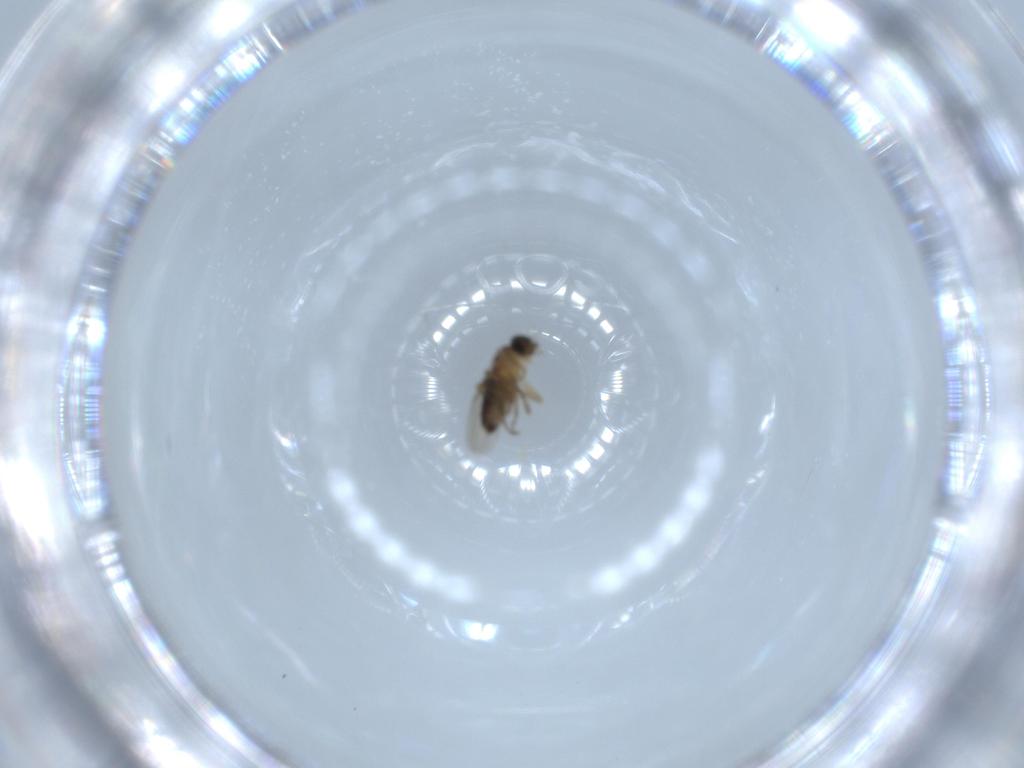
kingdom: Animalia
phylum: Arthropoda
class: Insecta
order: Diptera
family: Phoridae
